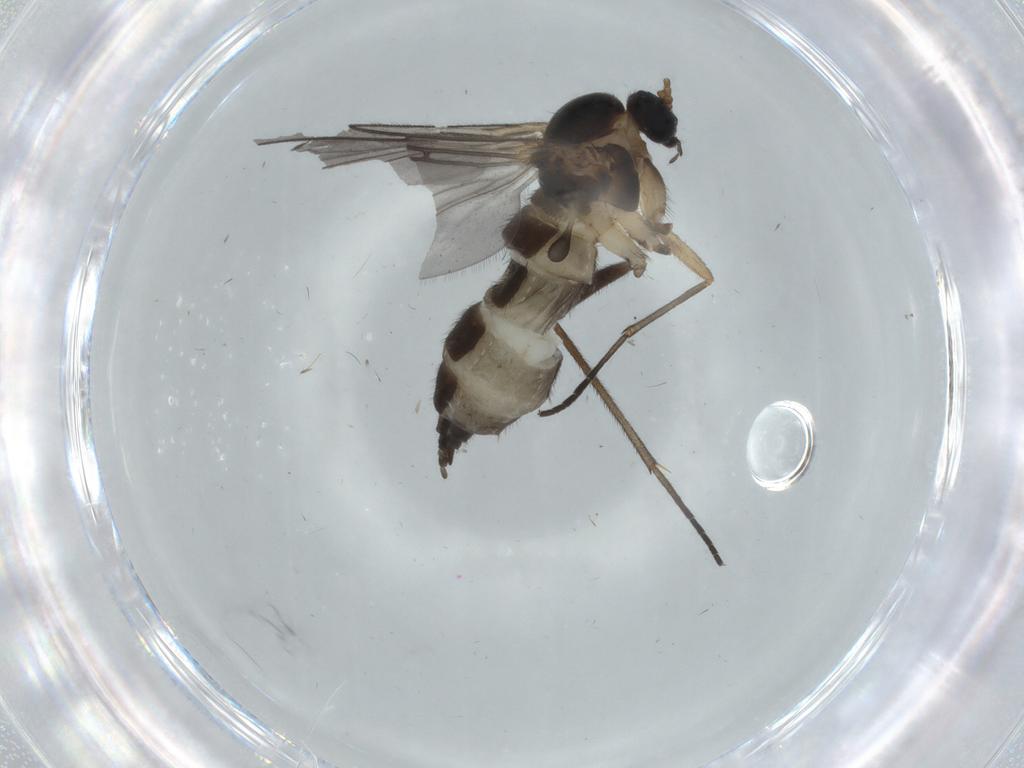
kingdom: Animalia
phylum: Arthropoda
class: Insecta
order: Diptera
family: Sciaridae
